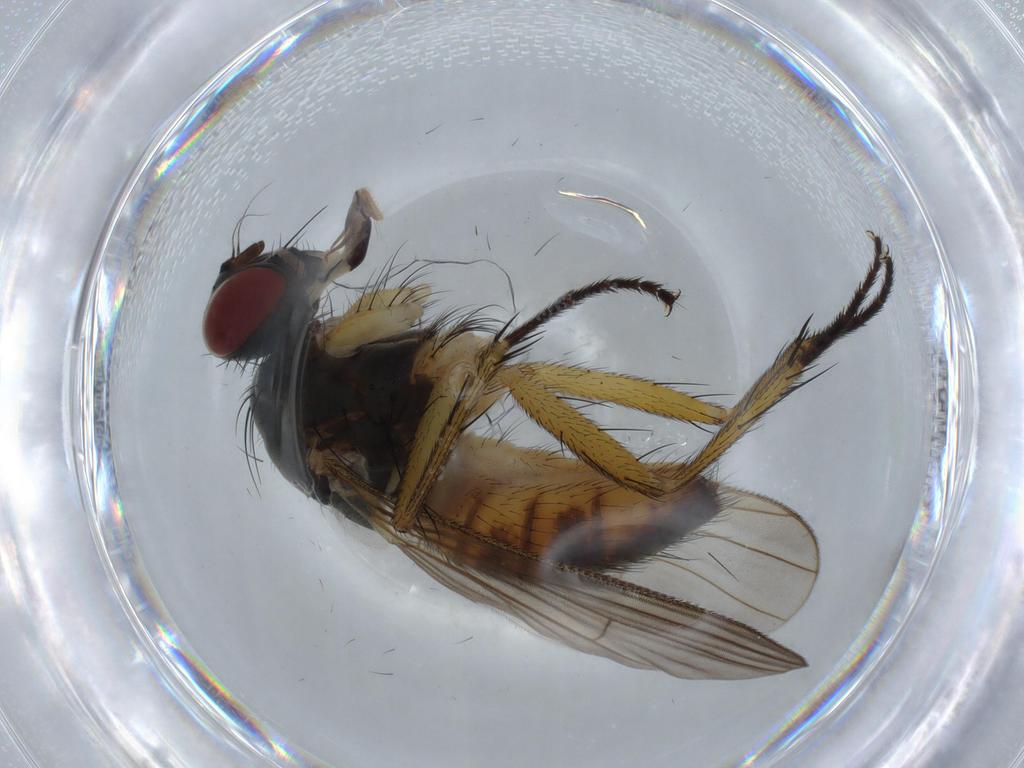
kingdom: Animalia
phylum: Arthropoda
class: Insecta
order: Diptera
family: Muscidae
